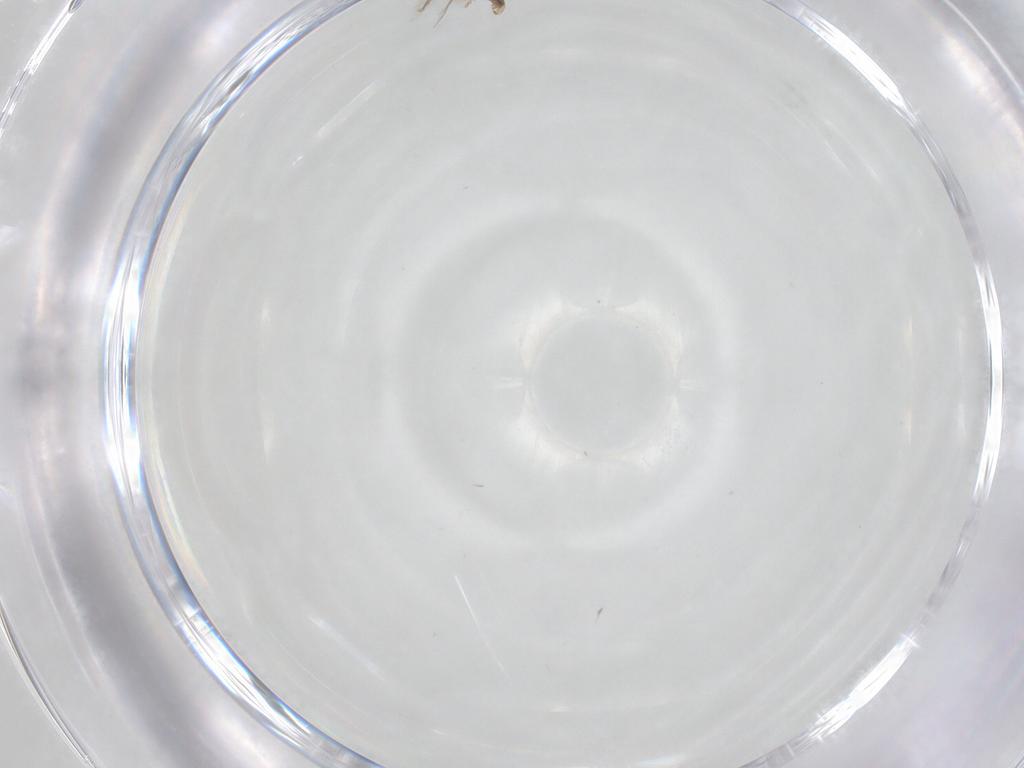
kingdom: Animalia
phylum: Arthropoda
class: Insecta
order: Diptera
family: Cecidomyiidae
